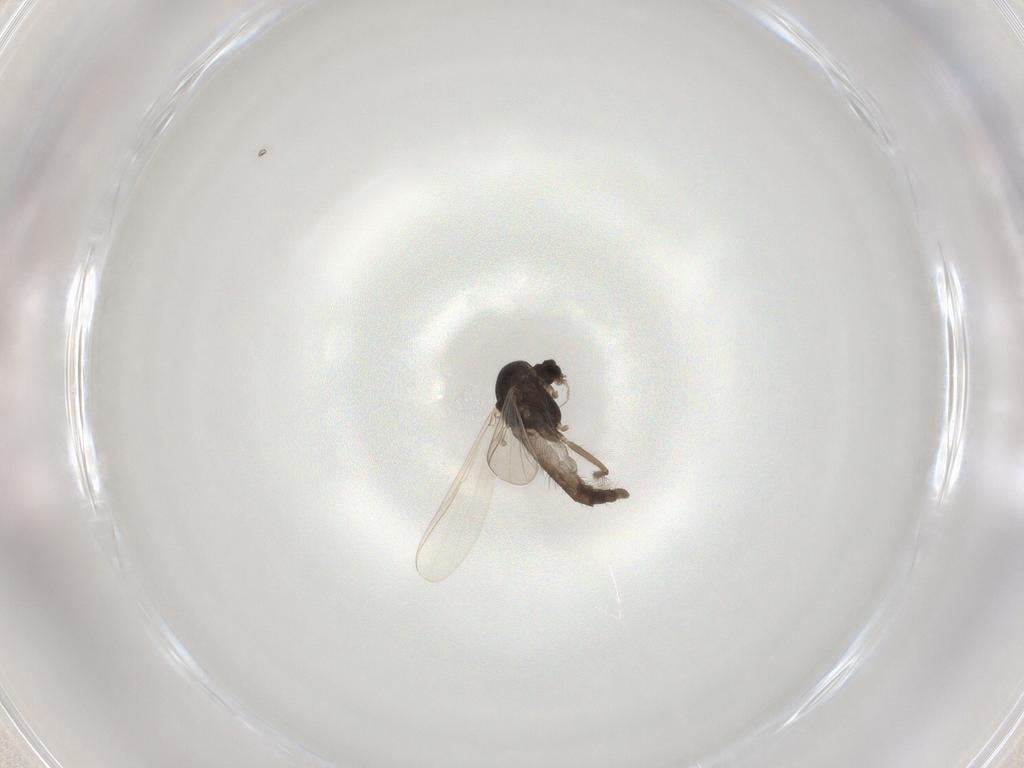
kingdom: Animalia
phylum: Arthropoda
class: Insecta
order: Diptera
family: Chironomidae
